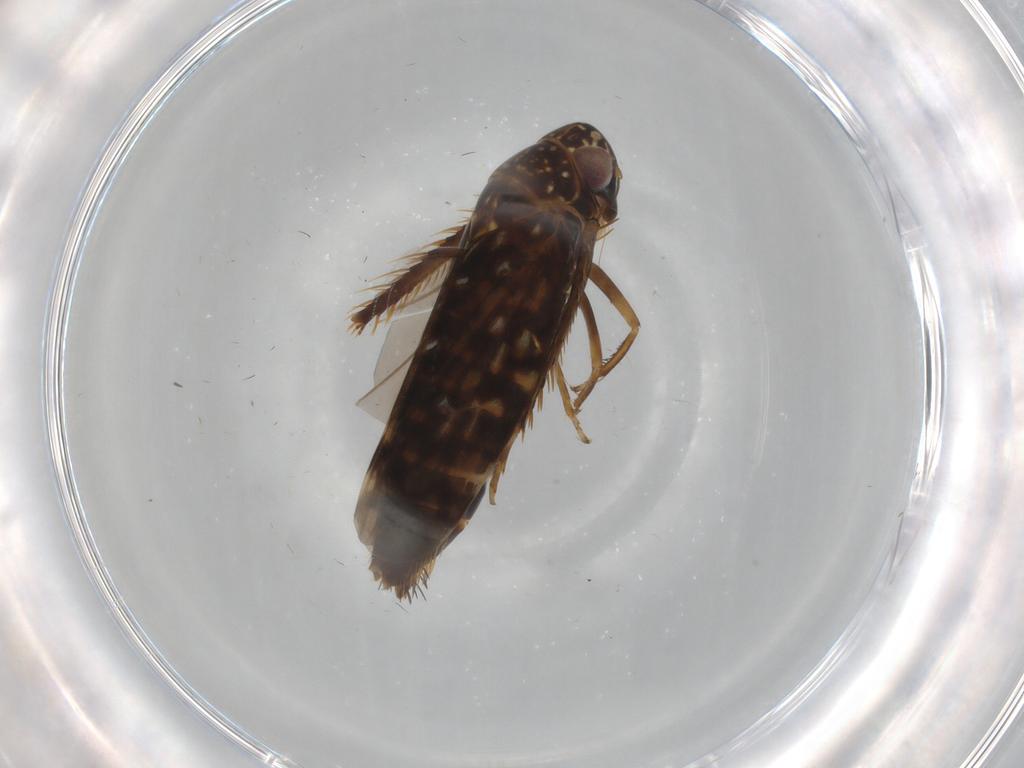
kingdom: Animalia
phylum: Arthropoda
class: Insecta
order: Hemiptera
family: Cicadellidae
